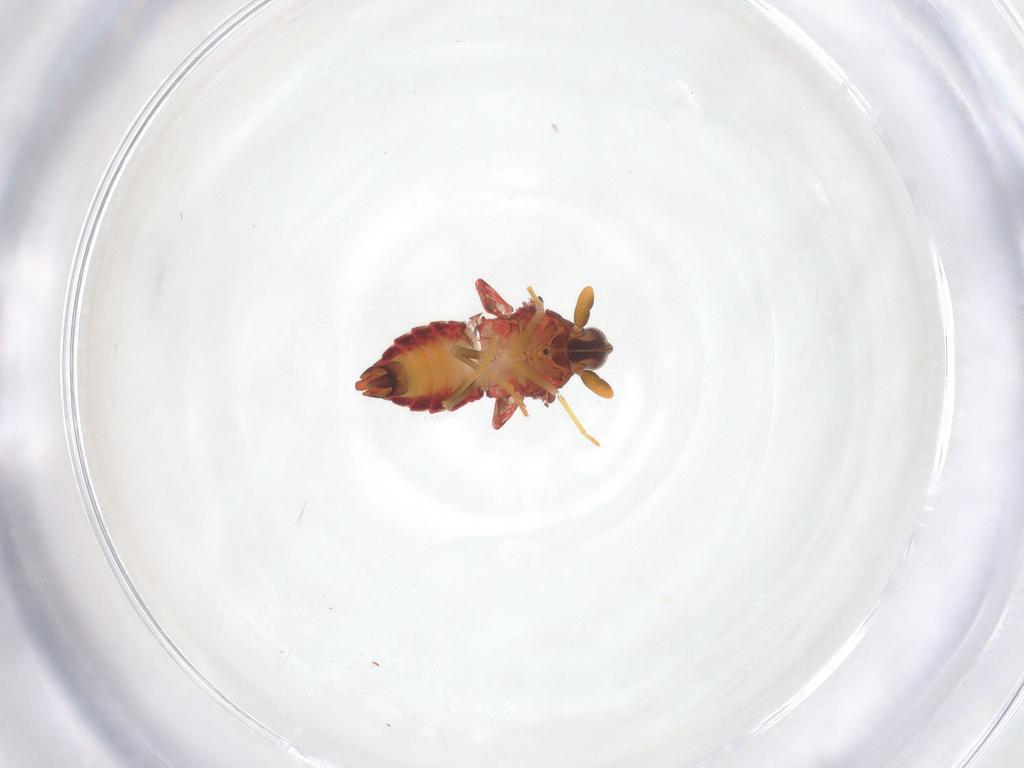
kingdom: Animalia
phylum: Arthropoda
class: Insecta
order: Hemiptera
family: Derbidae
